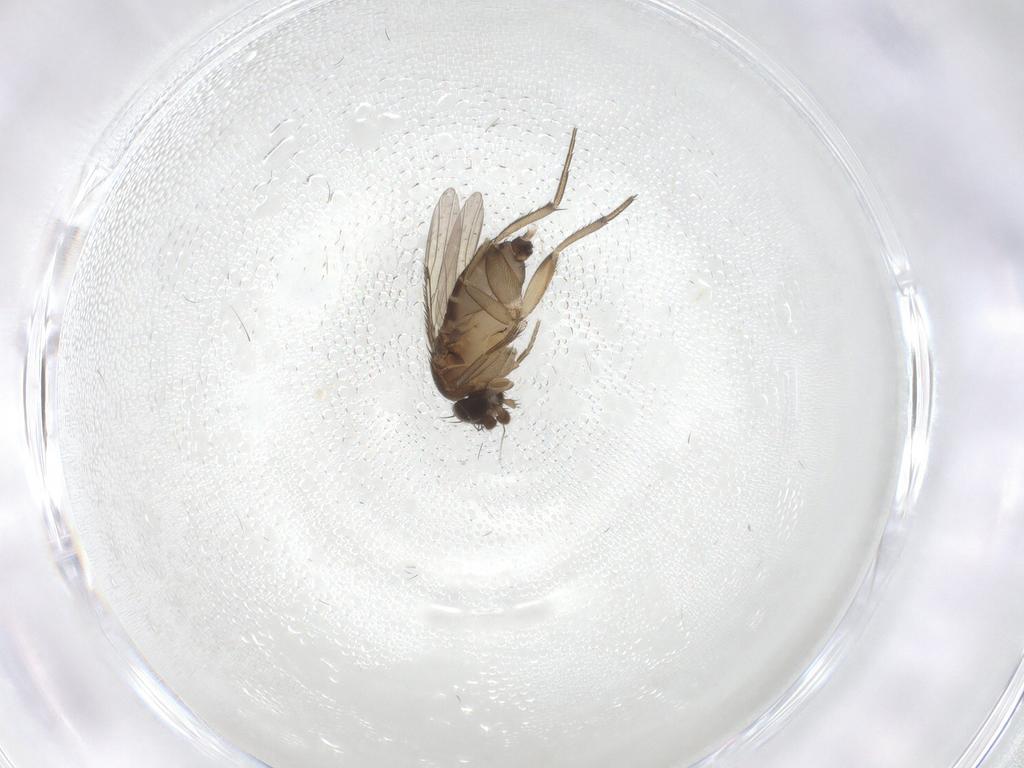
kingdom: Animalia
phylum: Arthropoda
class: Insecta
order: Diptera
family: Phoridae
